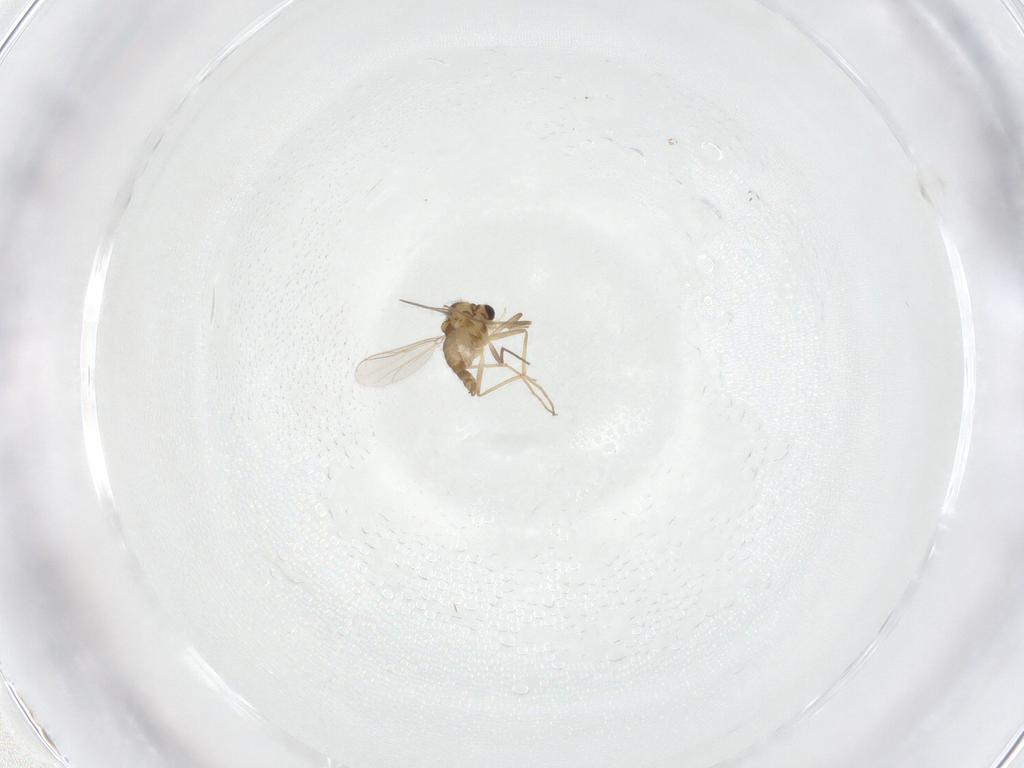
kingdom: Animalia
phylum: Arthropoda
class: Insecta
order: Diptera
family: Chironomidae
